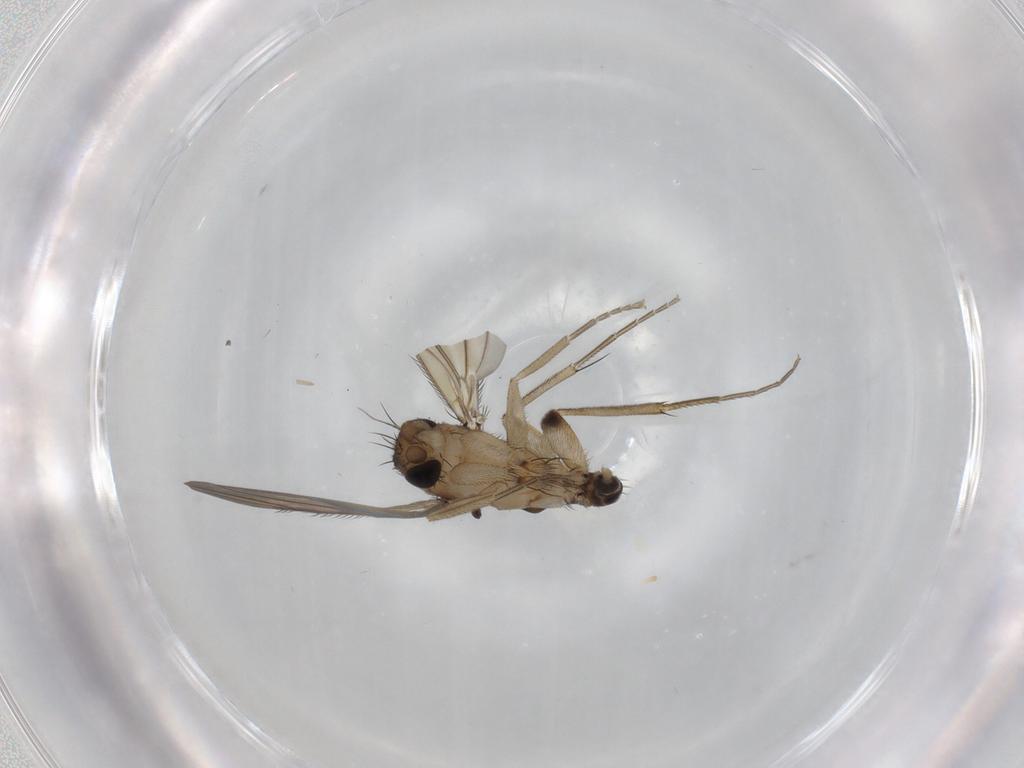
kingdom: Animalia
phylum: Arthropoda
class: Insecta
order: Diptera
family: Phoridae
